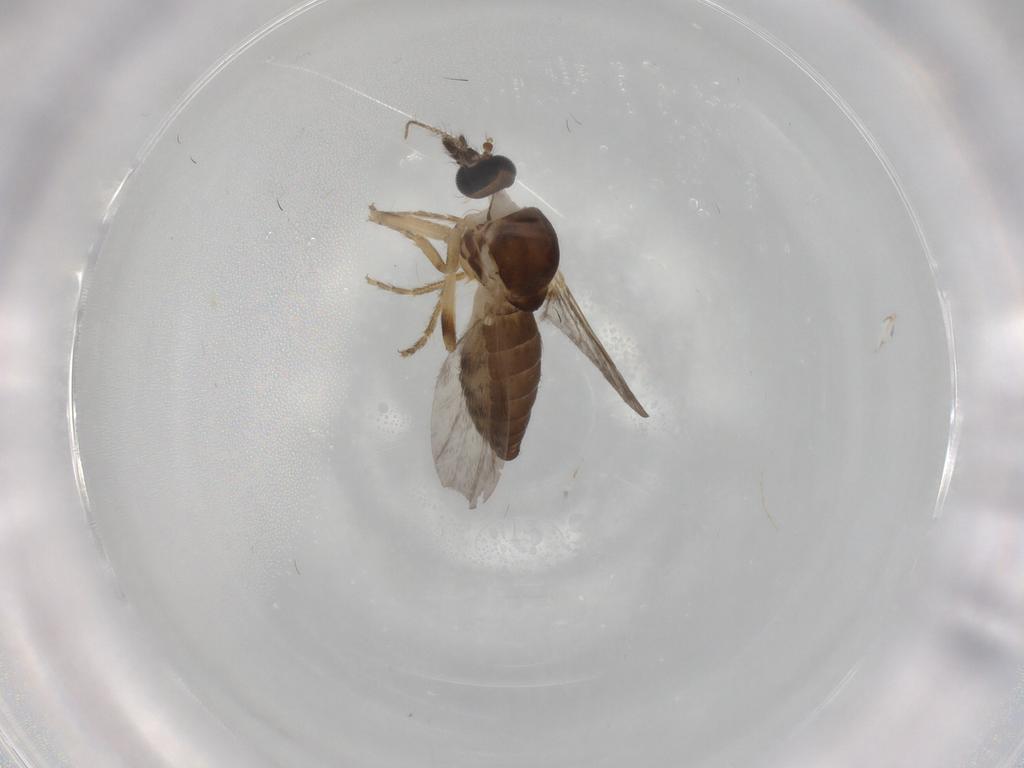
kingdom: Animalia
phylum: Arthropoda
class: Insecta
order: Diptera
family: Ceratopogonidae
